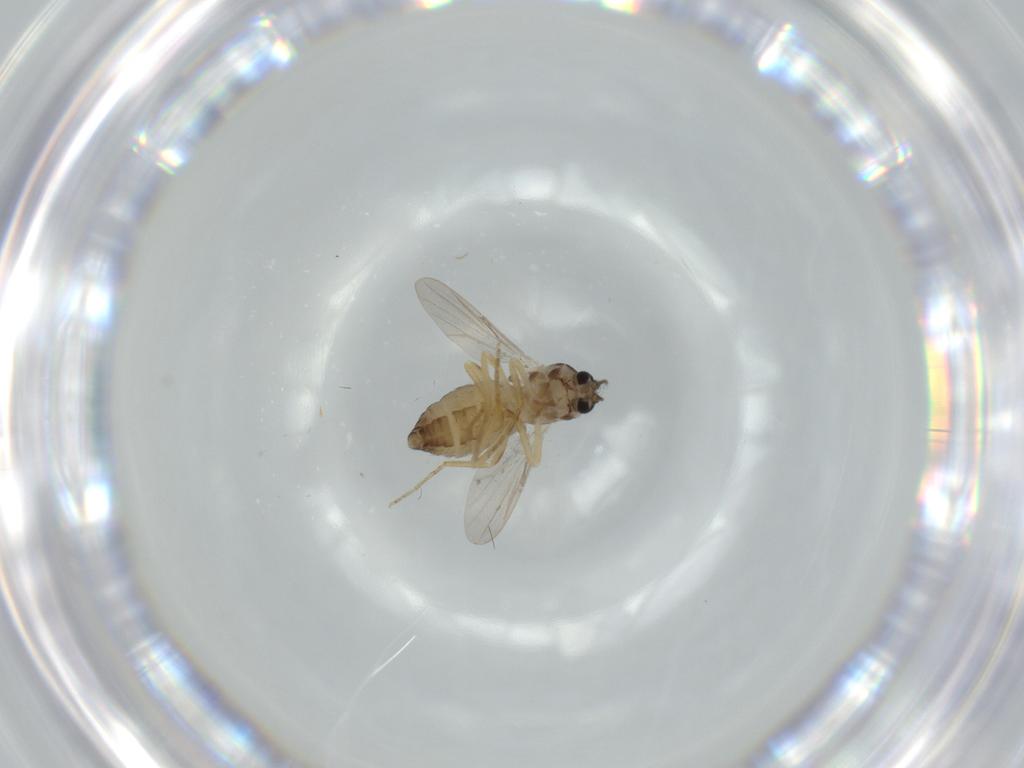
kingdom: Animalia
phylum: Arthropoda
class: Insecta
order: Diptera
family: Ceratopogonidae
